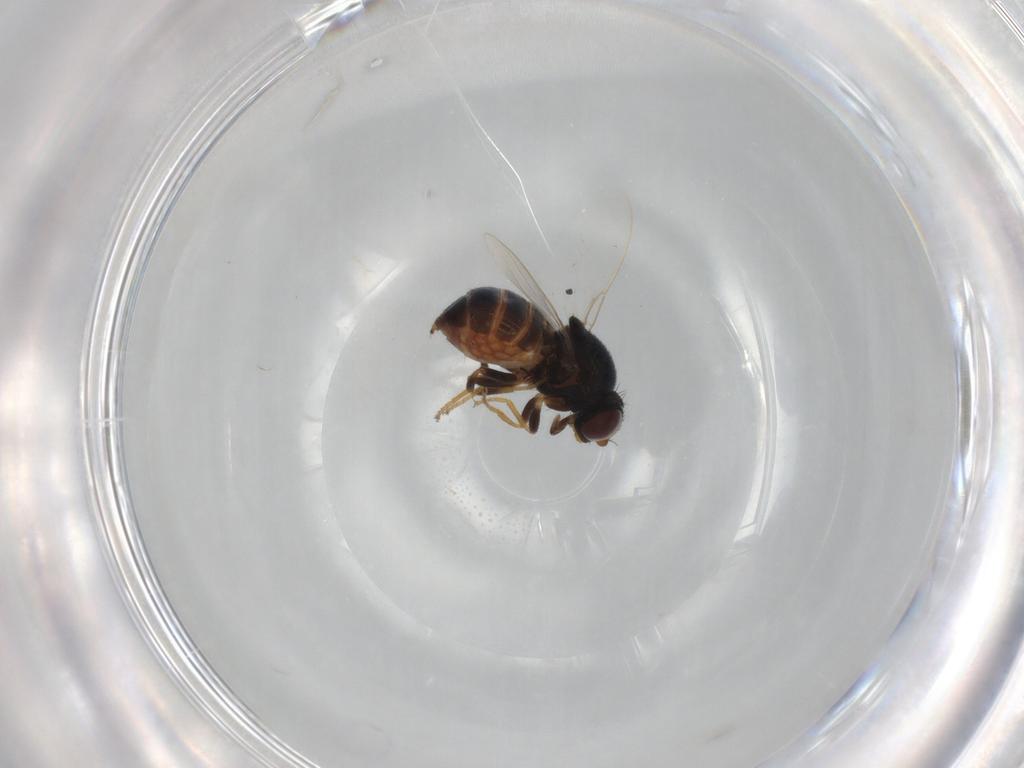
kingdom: Animalia
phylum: Arthropoda
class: Insecta
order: Diptera
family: Chloropidae
